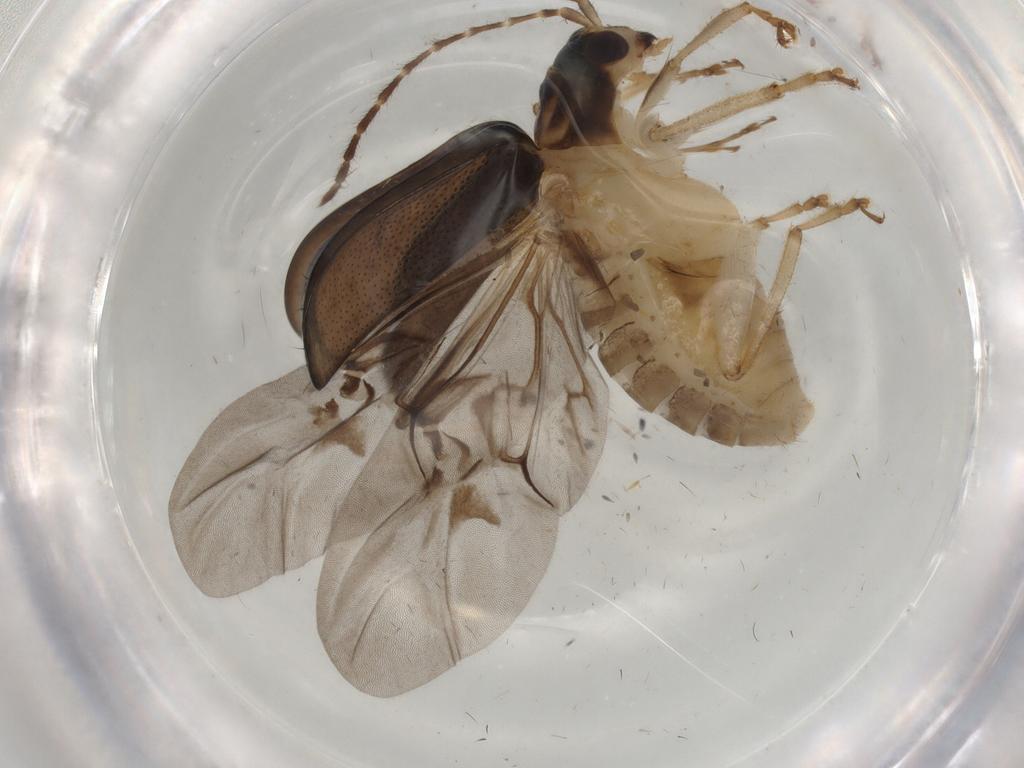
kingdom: Animalia
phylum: Arthropoda
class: Insecta
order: Coleoptera
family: Chrysomelidae
